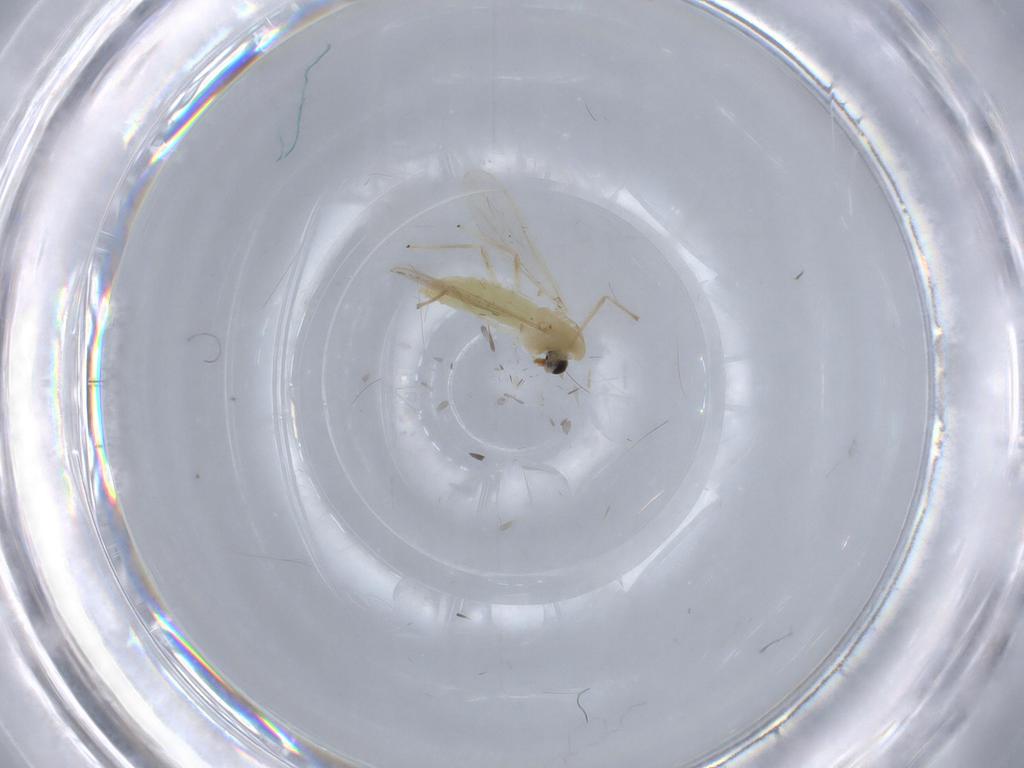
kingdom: Animalia
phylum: Arthropoda
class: Insecta
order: Diptera
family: Chironomidae
